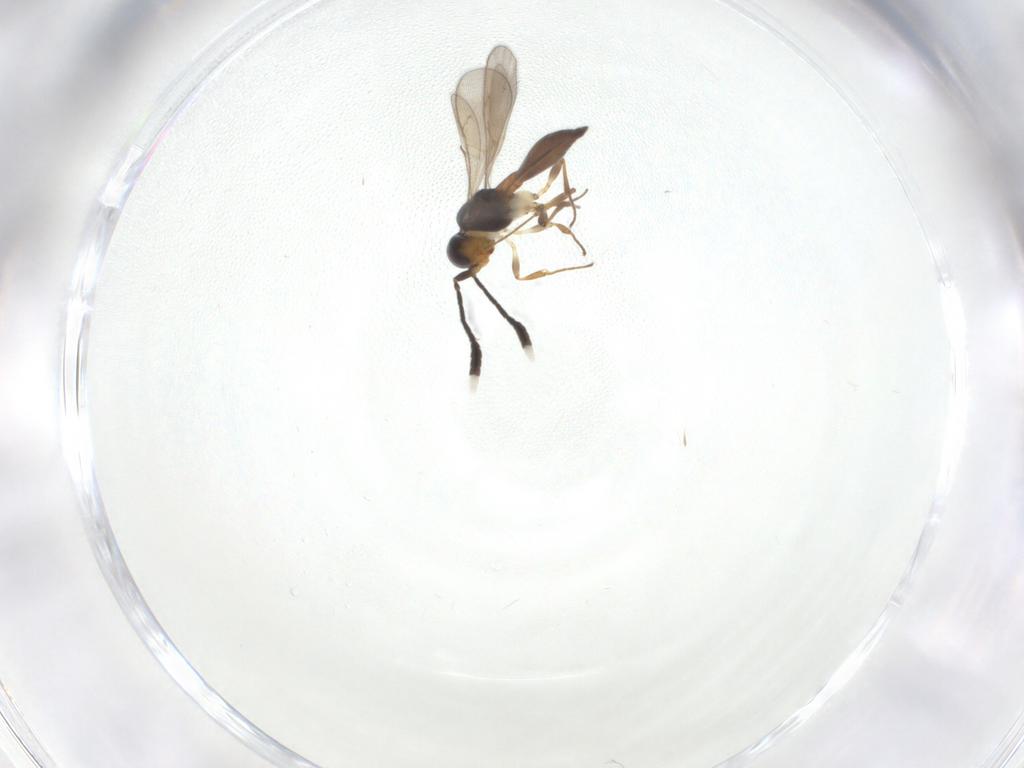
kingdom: Animalia
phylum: Arthropoda
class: Insecta
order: Hymenoptera
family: Scelionidae
